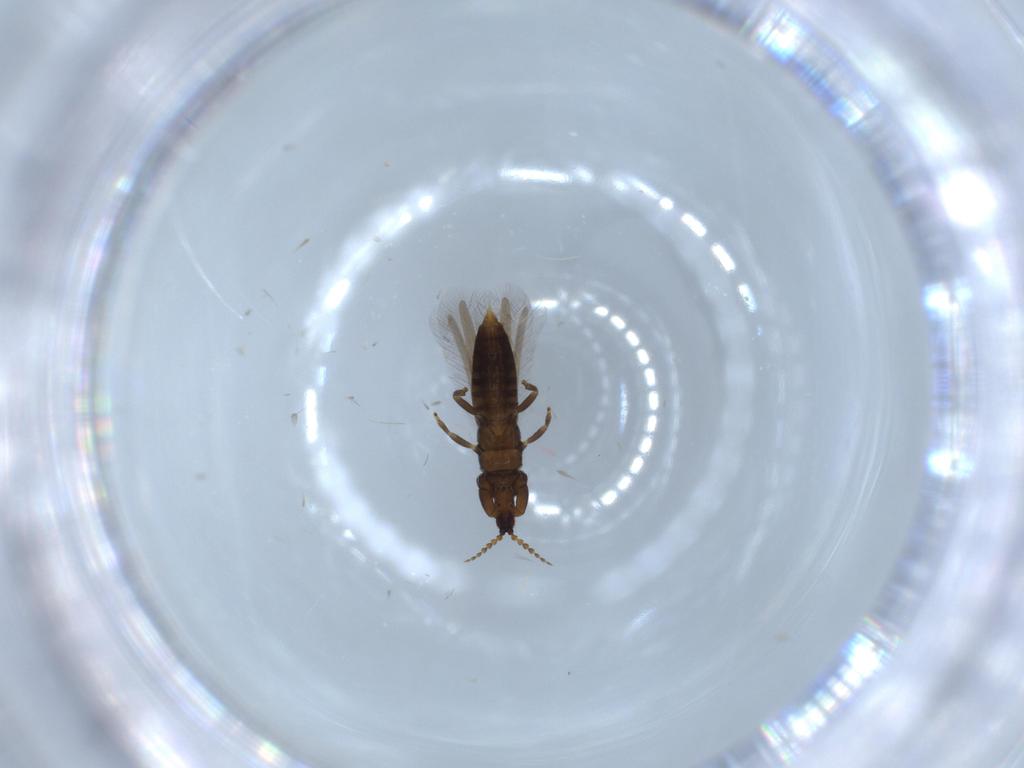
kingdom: Animalia
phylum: Arthropoda
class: Insecta
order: Thysanoptera
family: Phlaeothripidae
